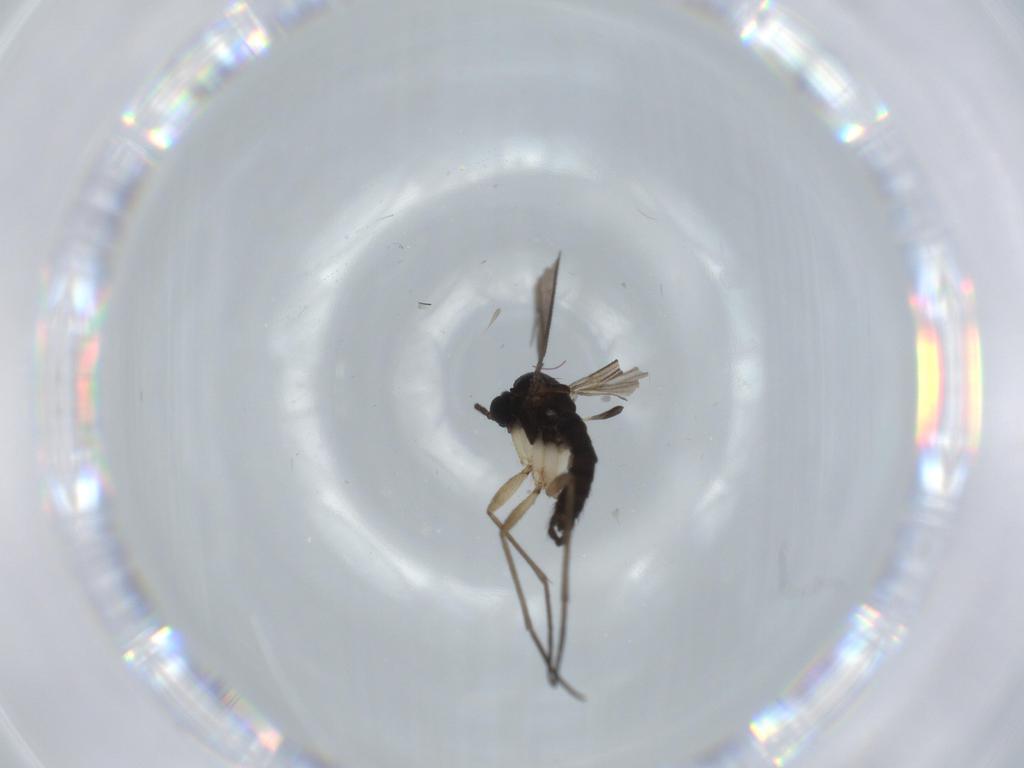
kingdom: Animalia
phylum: Arthropoda
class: Insecta
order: Diptera
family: Sciaridae
